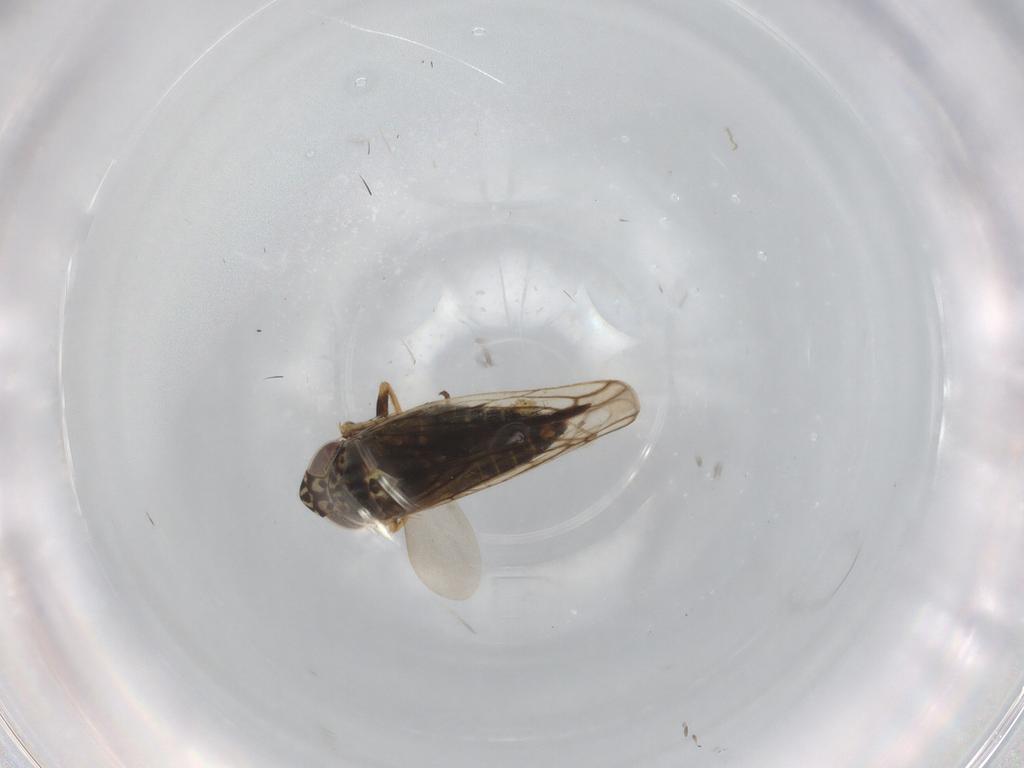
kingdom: Animalia
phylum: Arthropoda
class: Insecta
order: Hemiptera
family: Cicadellidae
